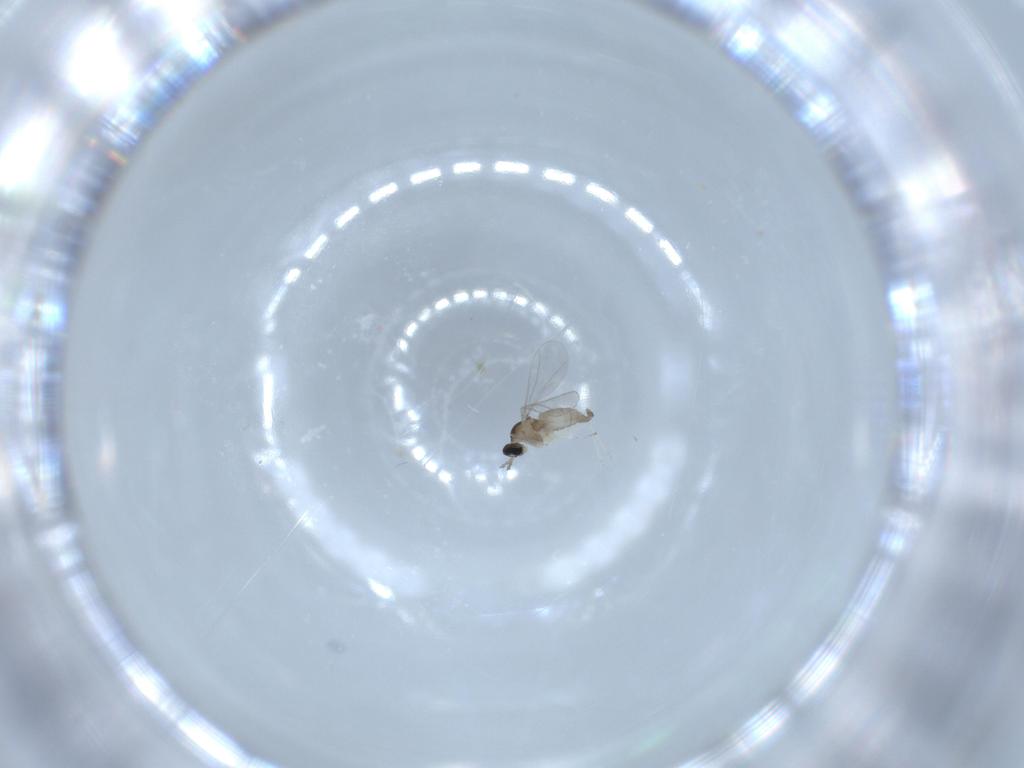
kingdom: Animalia
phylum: Arthropoda
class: Insecta
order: Diptera
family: Cecidomyiidae
